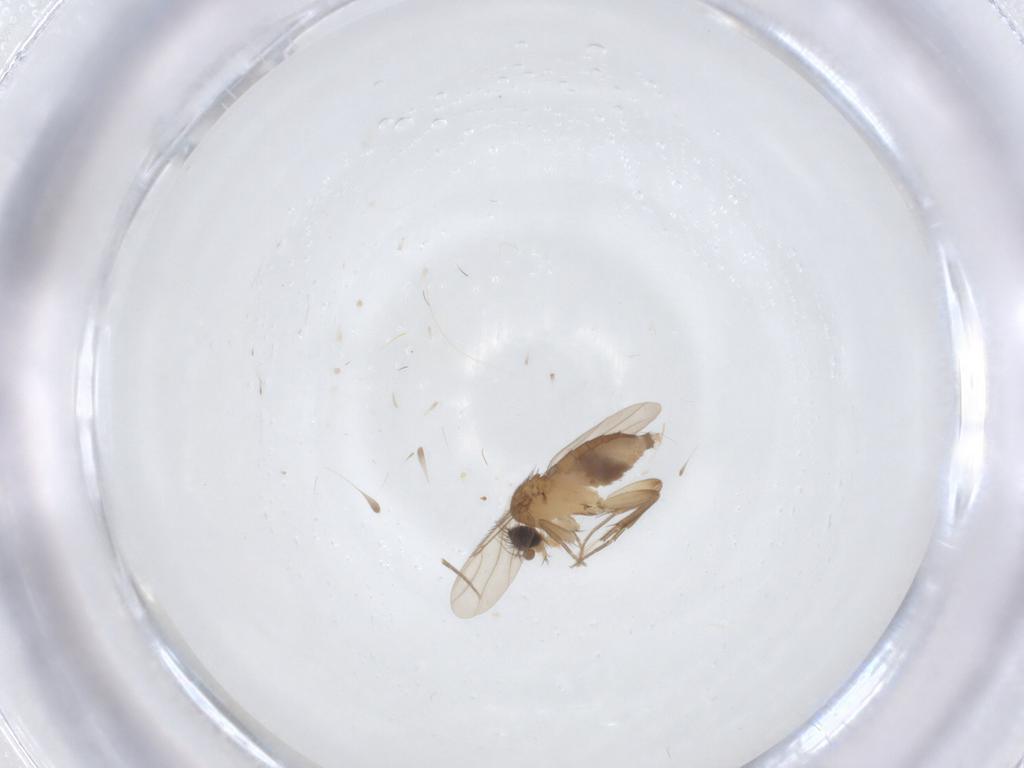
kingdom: Animalia
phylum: Arthropoda
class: Insecta
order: Diptera
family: Phoridae
